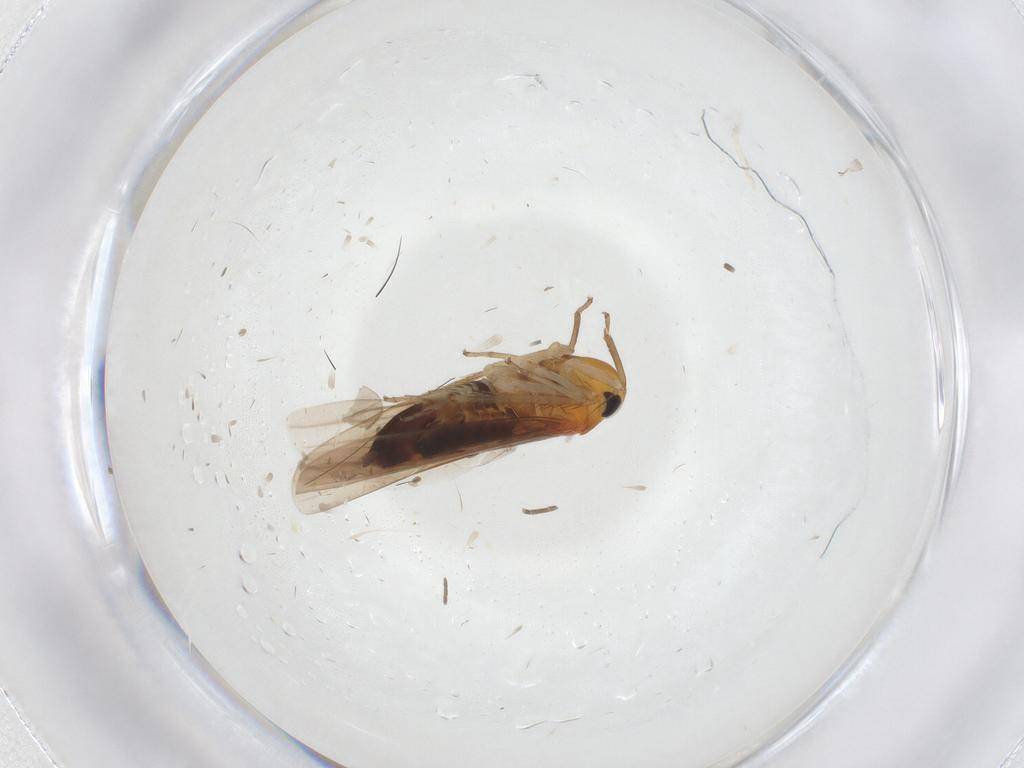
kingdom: Animalia
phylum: Arthropoda
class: Insecta
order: Hemiptera
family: Cicadellidae
